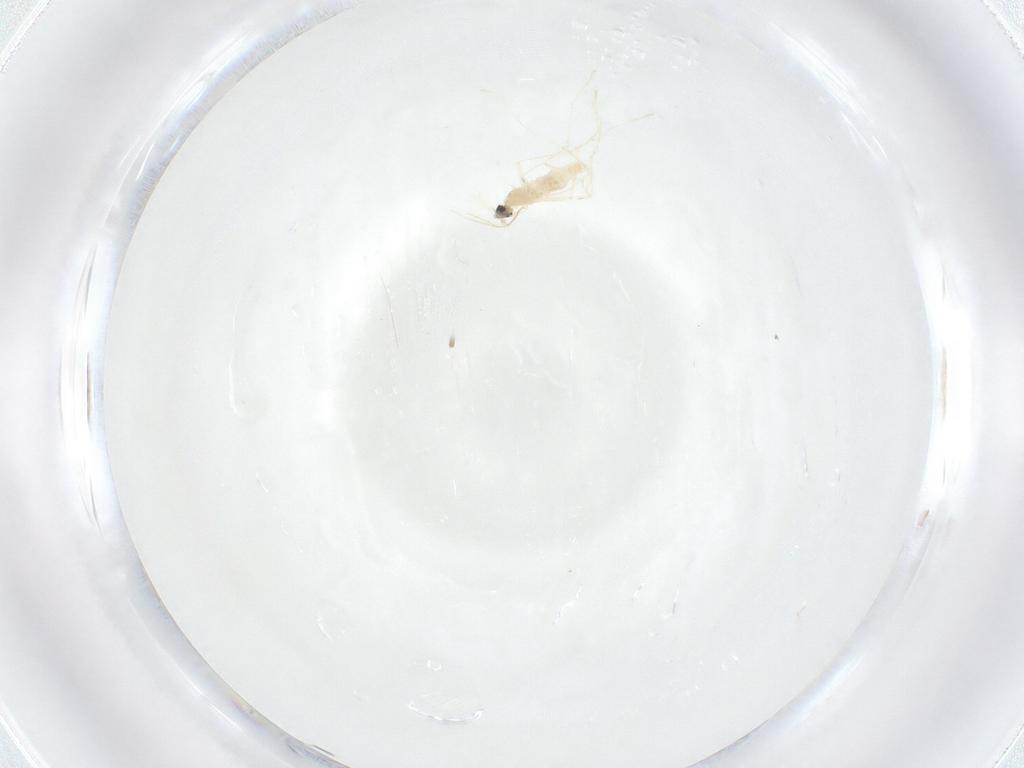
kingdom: Animalia
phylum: Arthropoda
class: Insecta
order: Diptera
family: Cecidomyiidae
